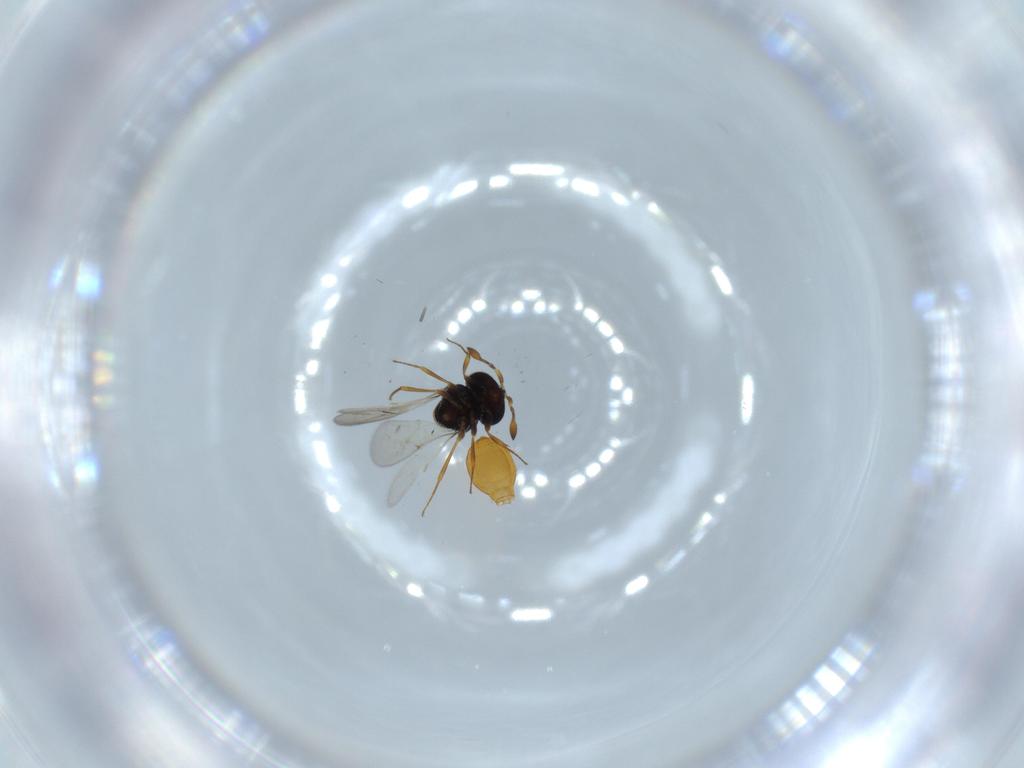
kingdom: Animalia
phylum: Arthropoda
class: Insecta
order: Hymenoptera
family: Scelionidae
